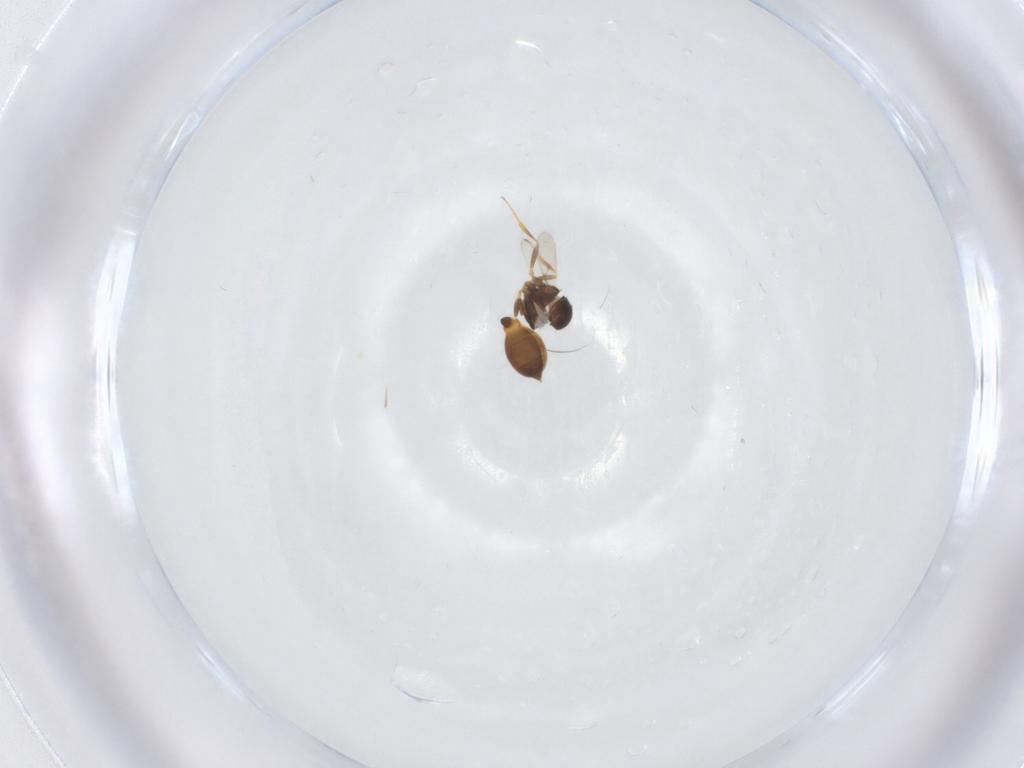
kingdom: Animalia
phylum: Arthropoda
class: Insecta
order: Hymenoptera
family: Scelionidae
